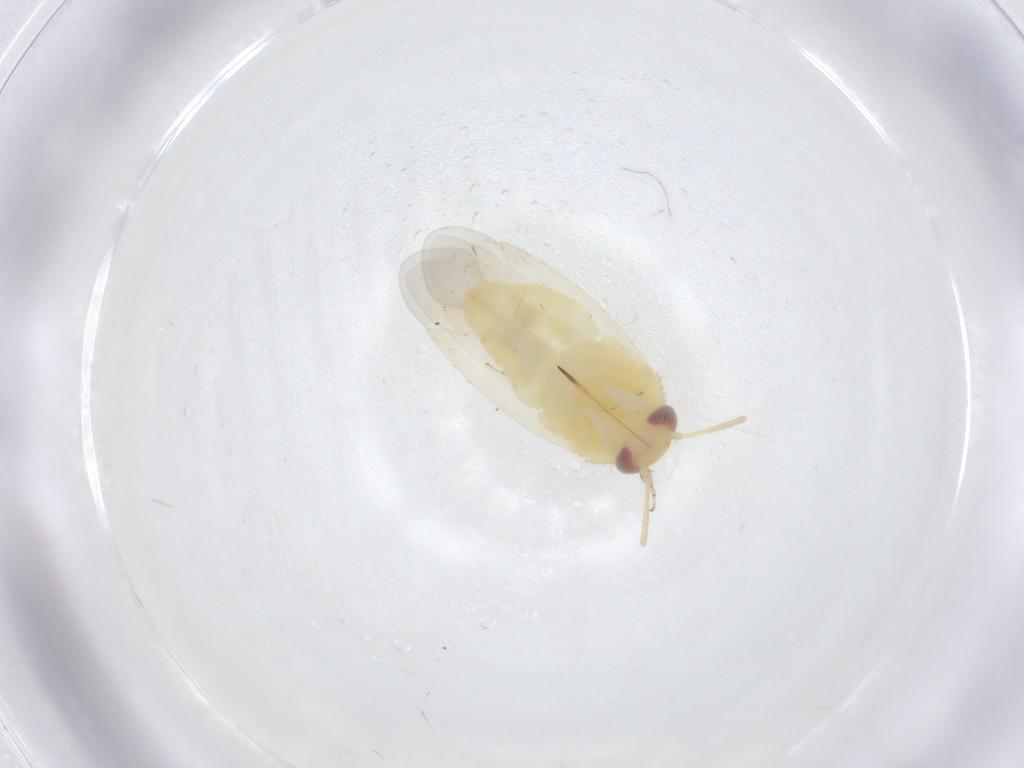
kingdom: Animalia
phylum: Arthropoda
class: Insecta
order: Hemiptera
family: Miridae
